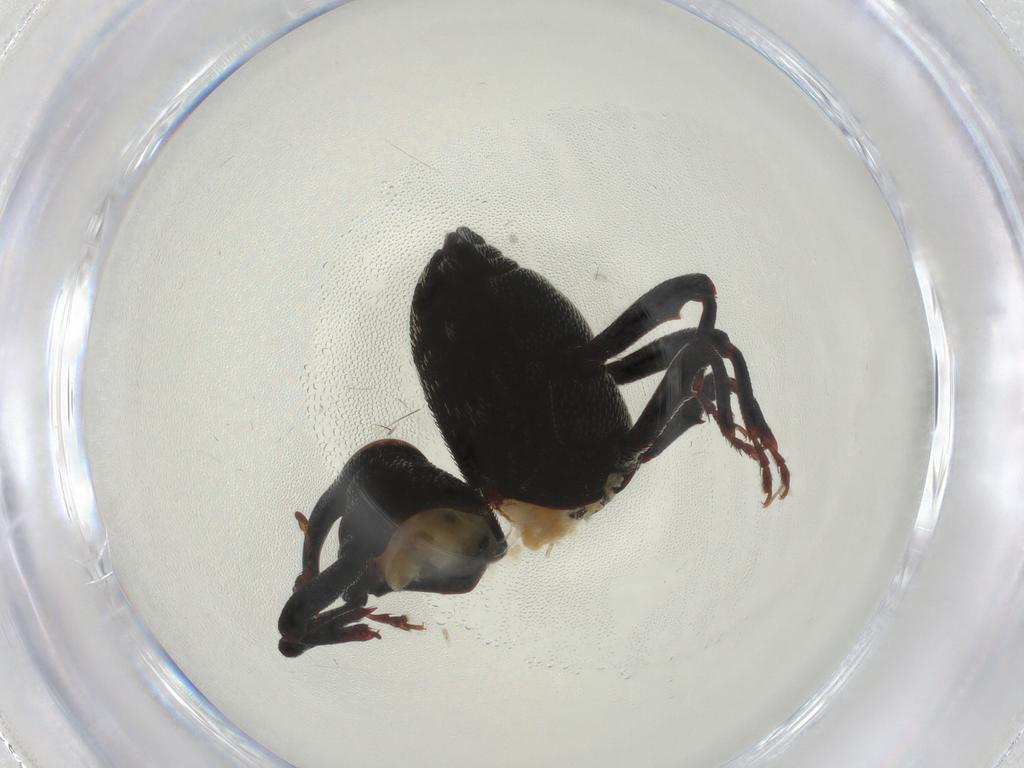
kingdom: Animalia
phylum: Arthropoda
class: Insecta
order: Coleoptera
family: Curculionidae
